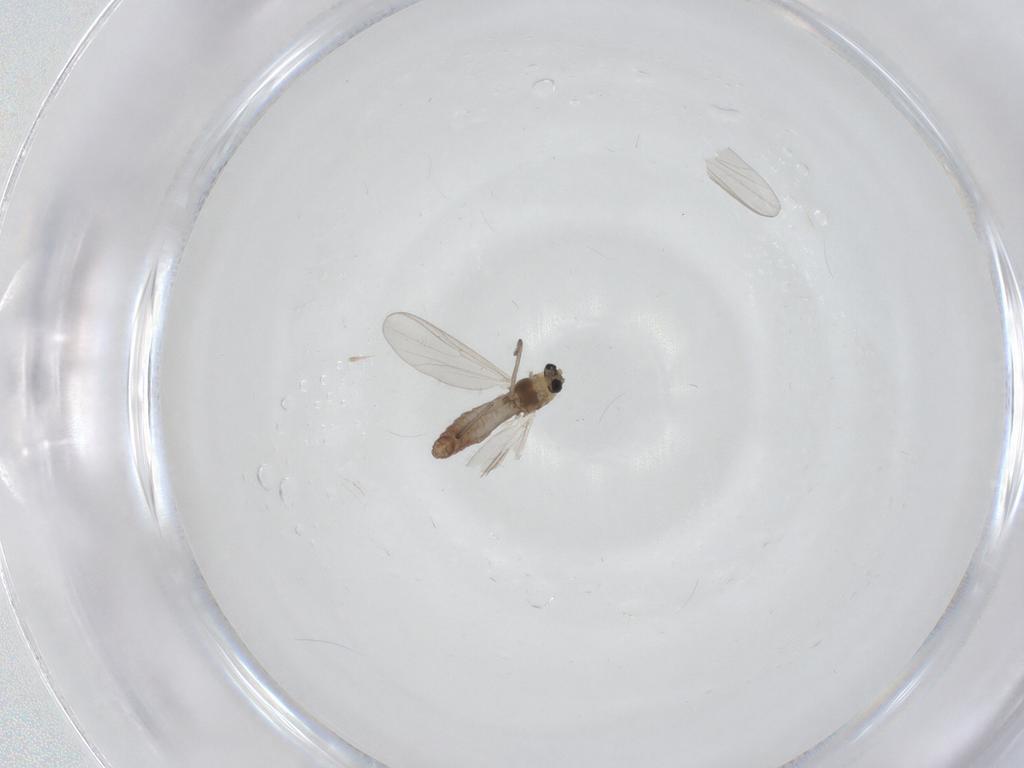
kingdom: Animalia
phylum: Arthropoda
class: Insecta
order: Diptera
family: Chironomidae
